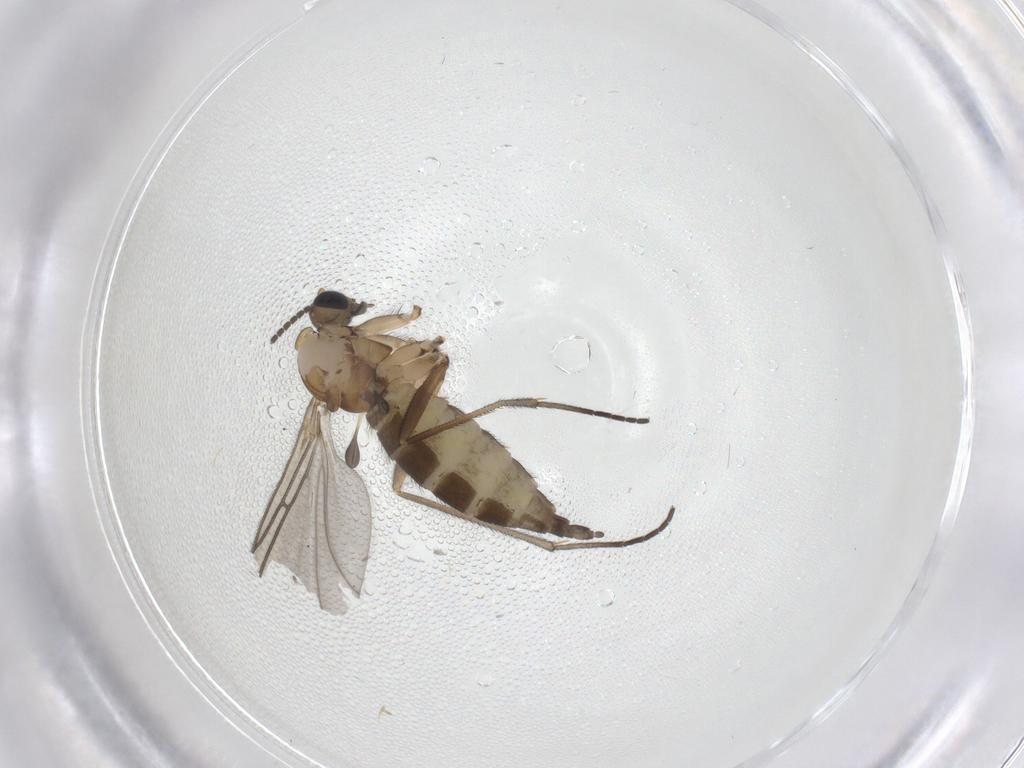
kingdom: Animalia
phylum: Arthropoda
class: Insecta
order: Diptera
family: Sciaridae
